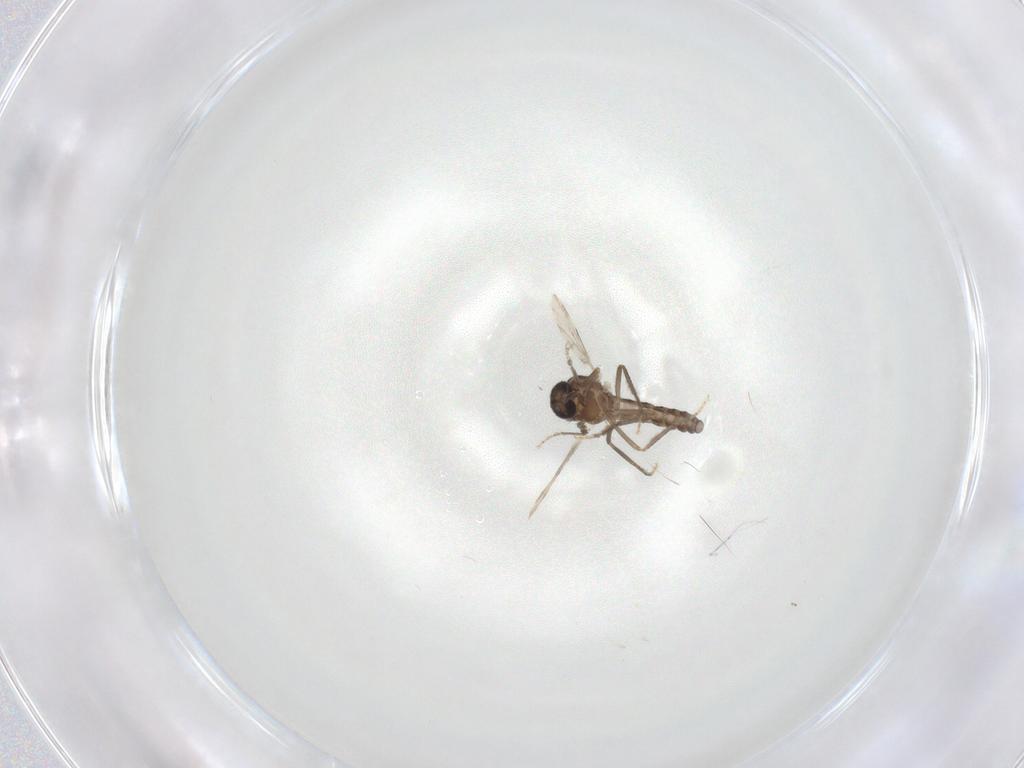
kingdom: Animalia
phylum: Arthropoda
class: Insecta
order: Diptera
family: Ceratopogonidae
